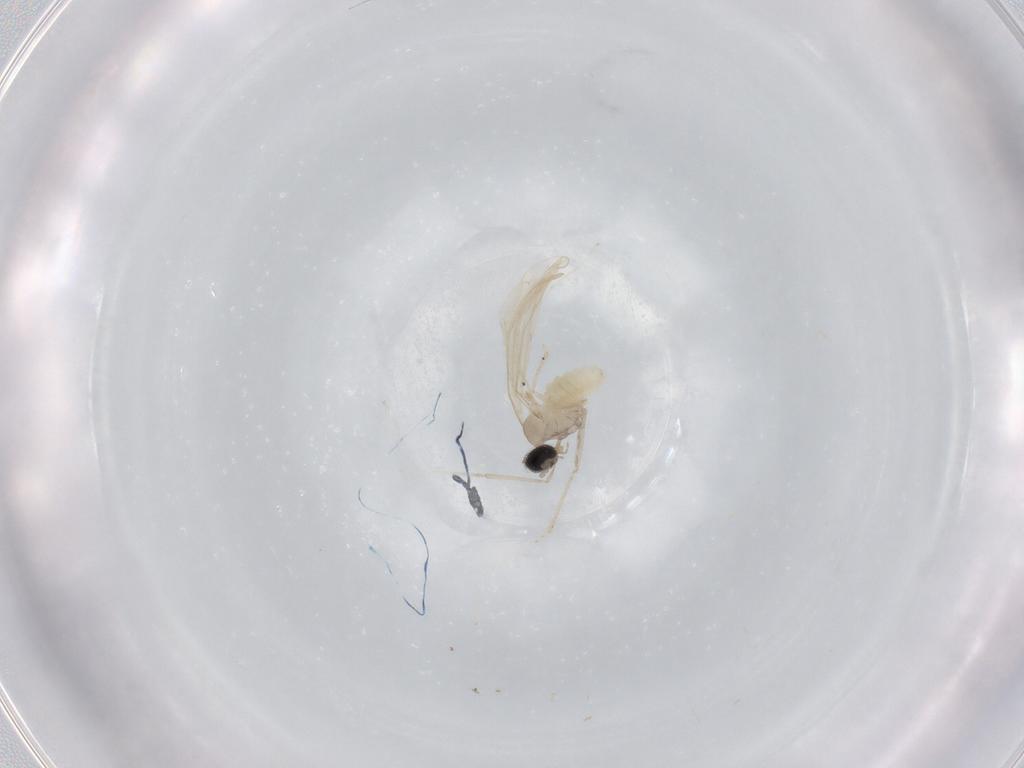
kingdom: Animalia
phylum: Arthropoda
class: Insecta
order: Diptera
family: Cecidomyiidae
